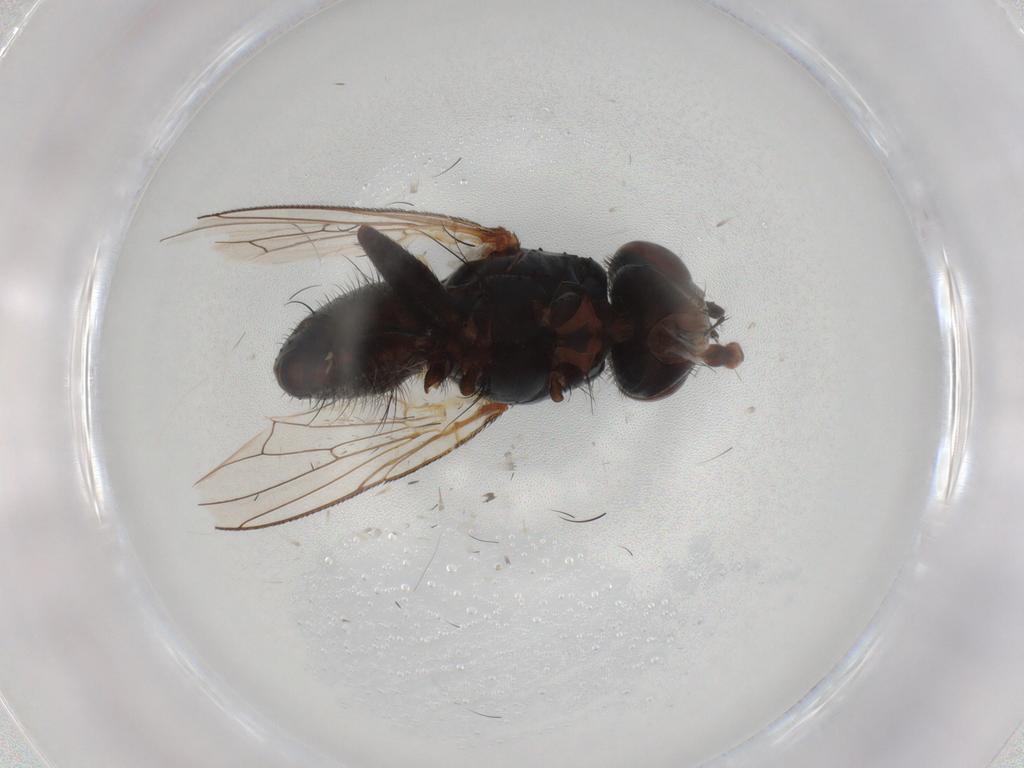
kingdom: Animalia
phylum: Arthropoda
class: Insecta
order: Diptera
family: Anthomyiidae
